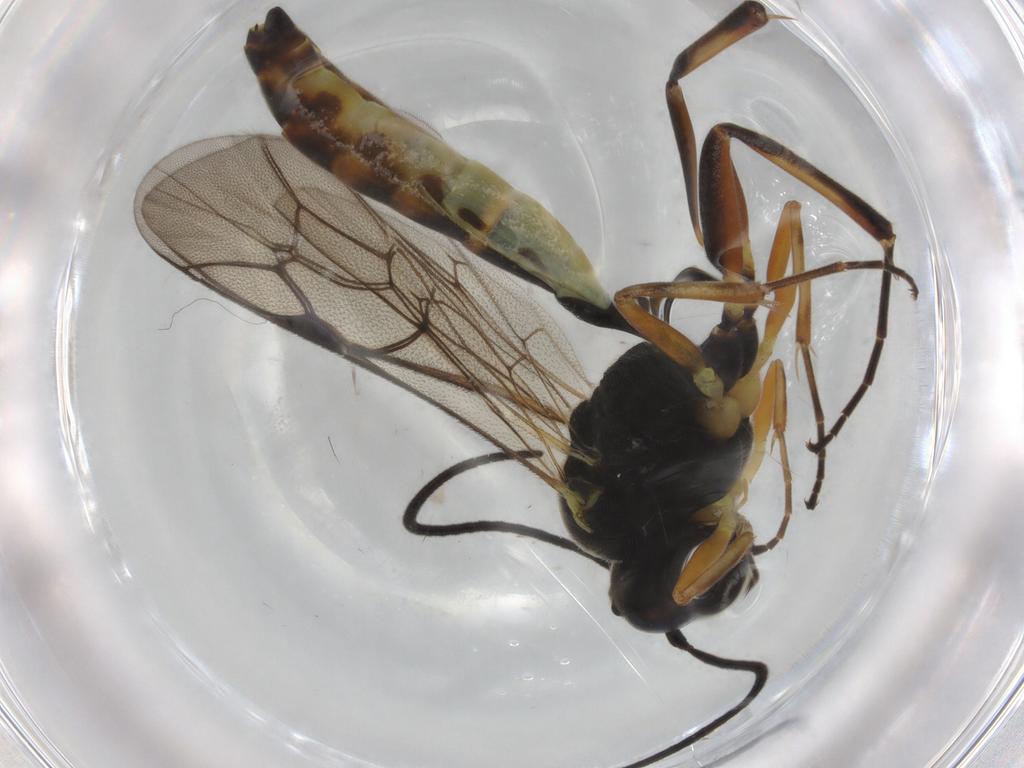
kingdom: Animalia
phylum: Arthropoda
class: Insecta
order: Hymenoptera
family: Ichneumonidae
